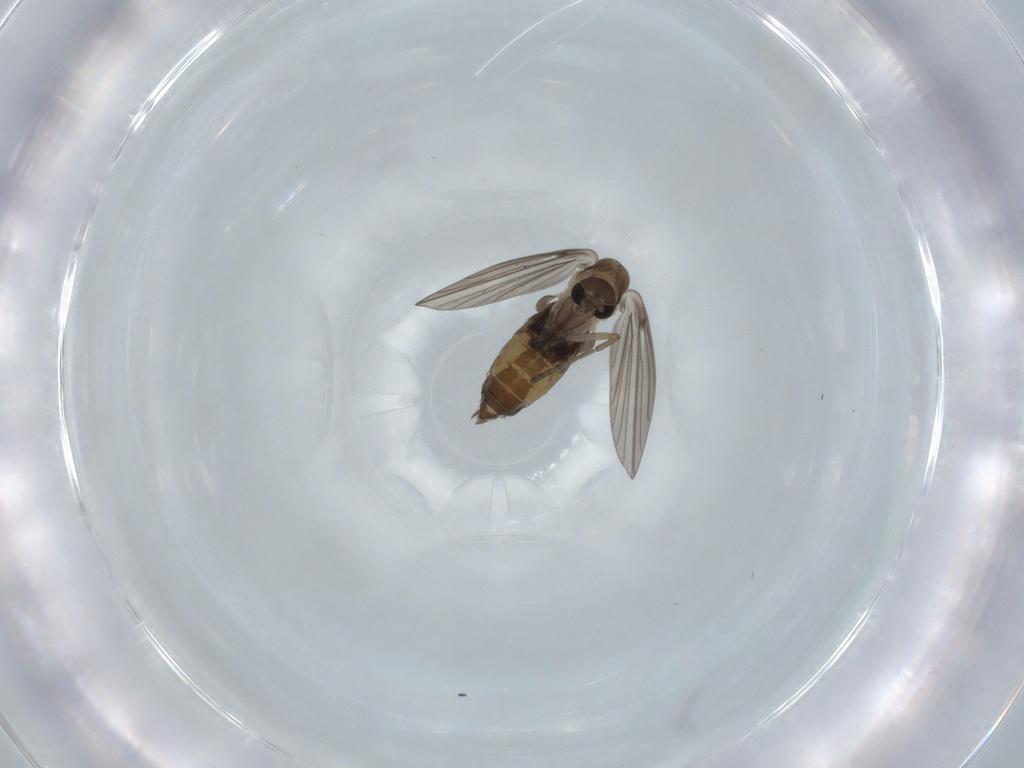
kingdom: Animalia
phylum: Arthropoda
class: Insecta
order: Diptera
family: Psychodidae
